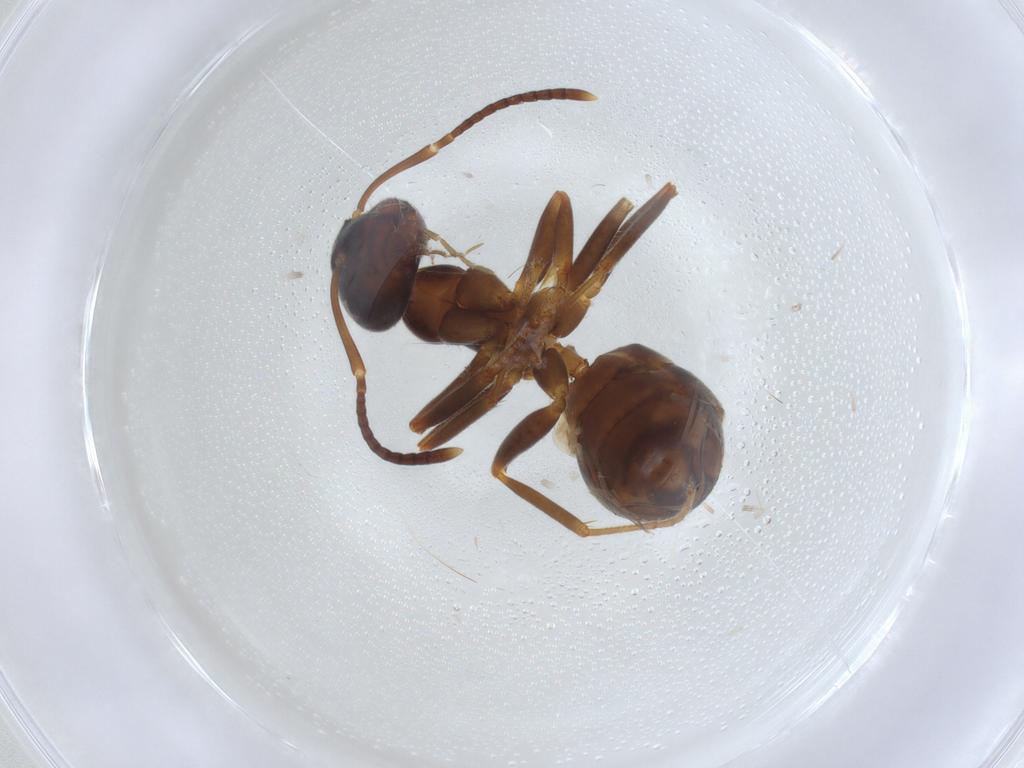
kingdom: Animalia
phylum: Arthropoda
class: Insecta
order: Hymenoptera
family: Formicidae
